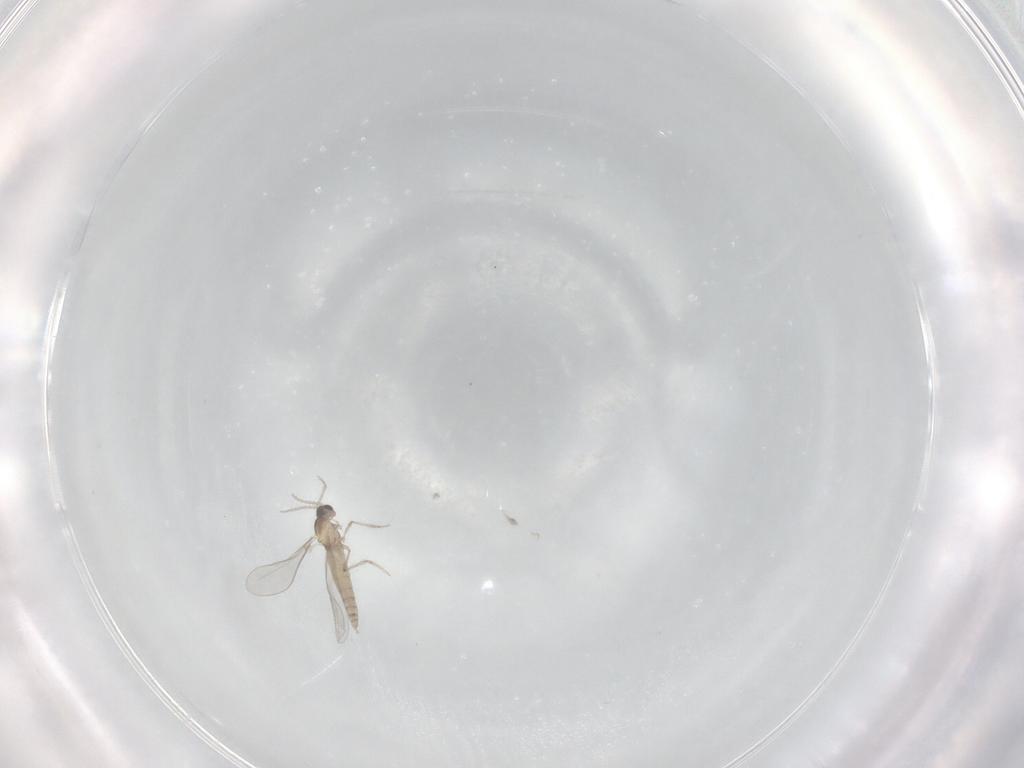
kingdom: Animalia
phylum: Arthropoda
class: Insecta
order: Diptera
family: Cecidomyiidae
